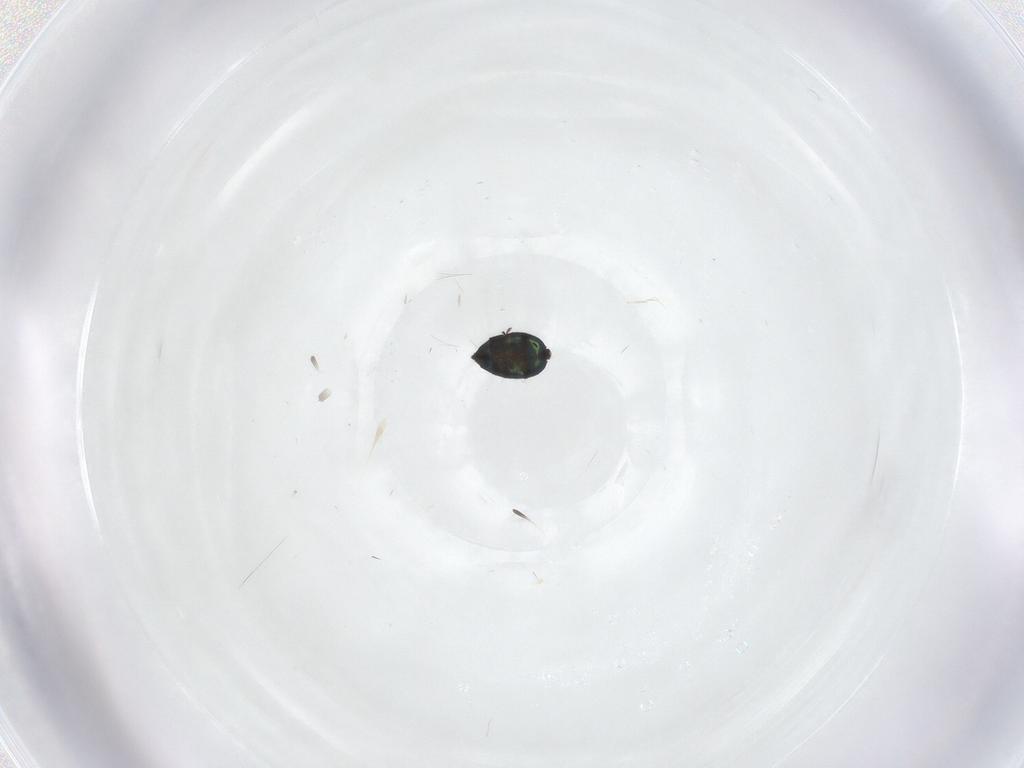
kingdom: Animalia
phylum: Arthropoda
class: Insecta
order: Hymenoptera
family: Eulophidae
